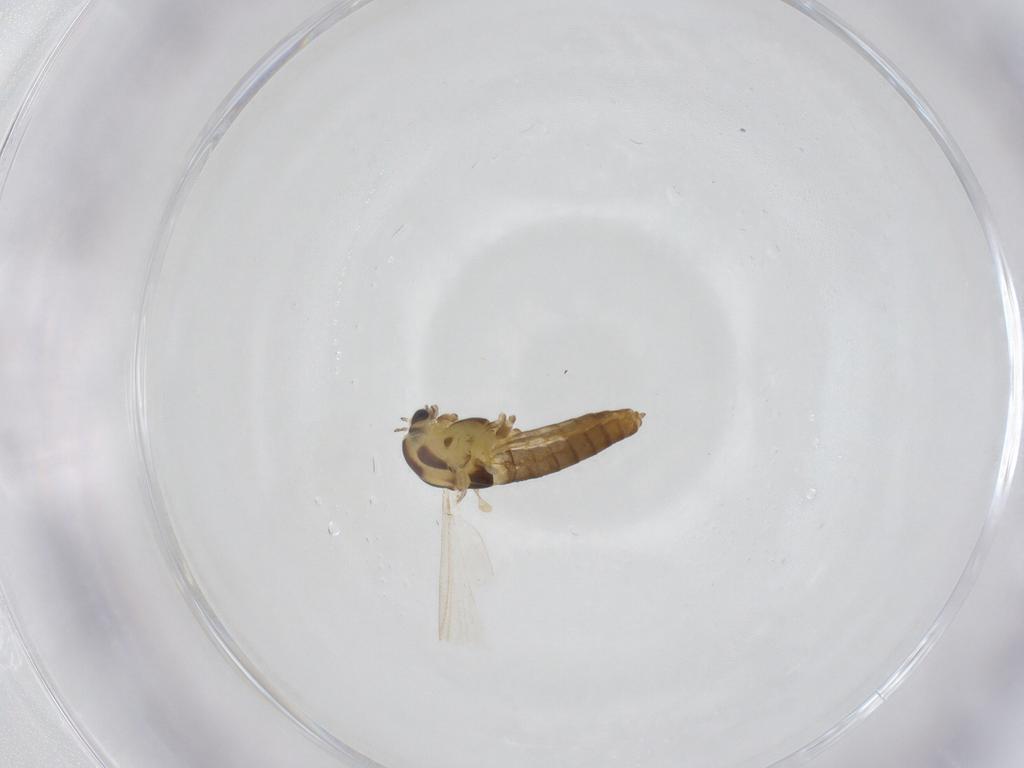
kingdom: Animalia
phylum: Arthropoda
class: Insecta
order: Diptera
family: Chironomidae
